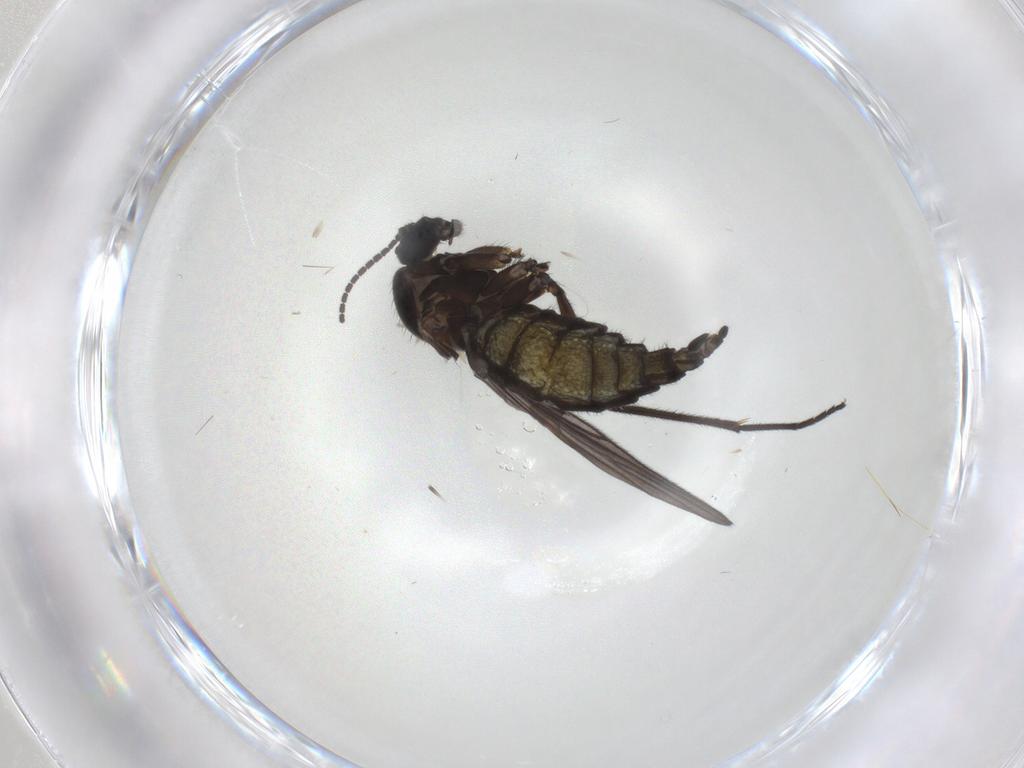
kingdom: Animalia
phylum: Arthropoda
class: Insecta
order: Diptera
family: Sciaridae
